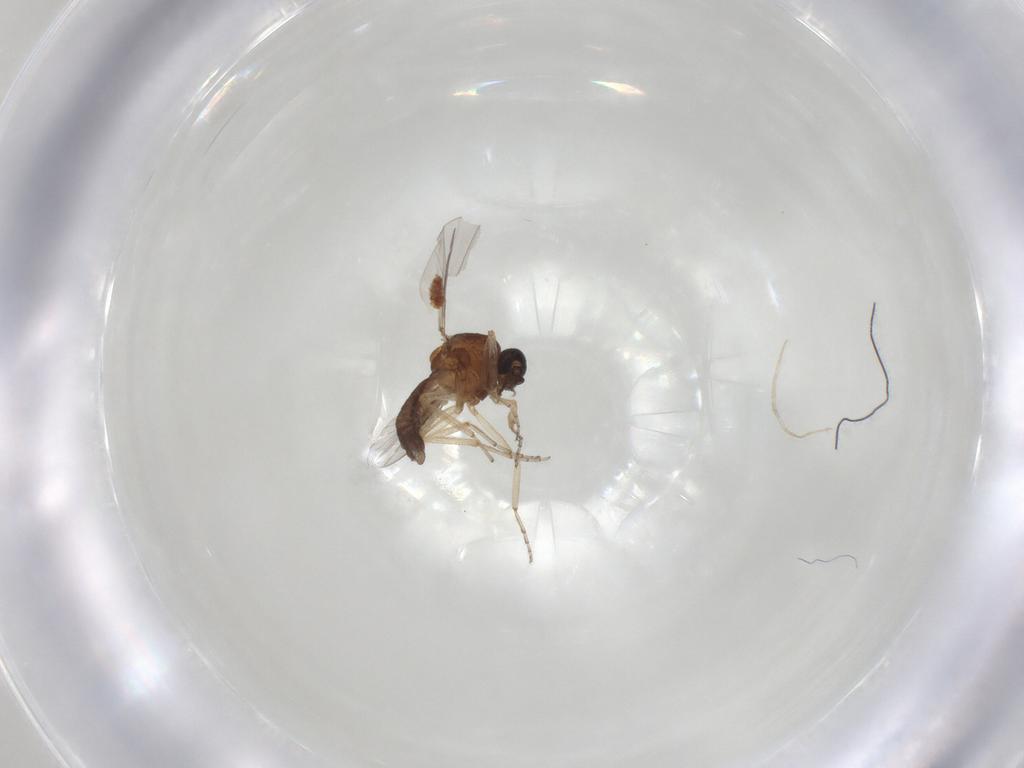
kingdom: Animalia
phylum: Arthropoda
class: Insecta
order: Diptera
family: Ceratopogonidae
